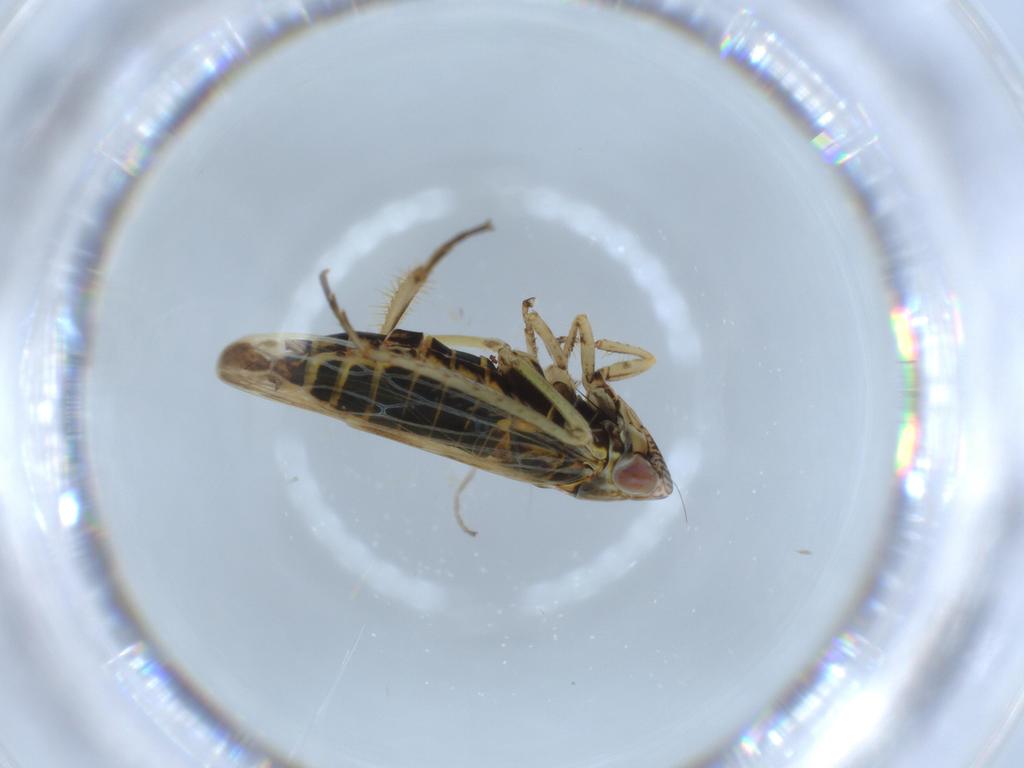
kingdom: Animalia
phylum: Arthropoda
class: Insecta
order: Hemiptera
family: Cicadellidae
